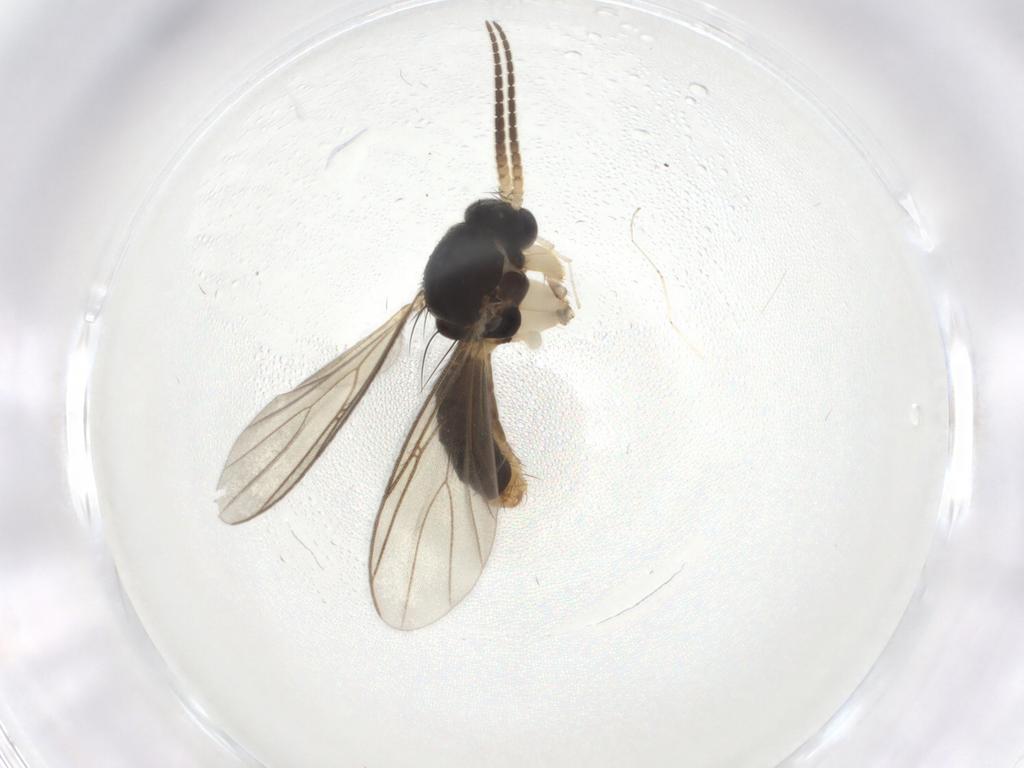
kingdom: Animalia
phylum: Arthropoda
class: Insecta
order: Diptera
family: Mycetophilidae
